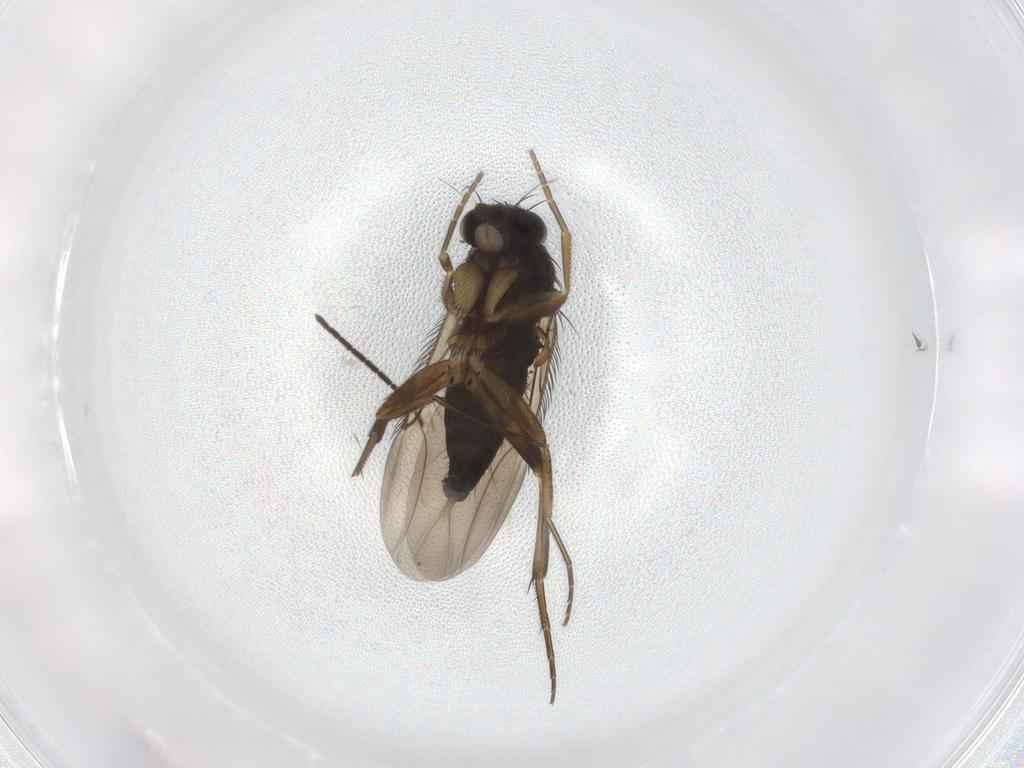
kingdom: Animalia
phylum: Arthropoda
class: Insecta
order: Diptera
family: Phoridae
